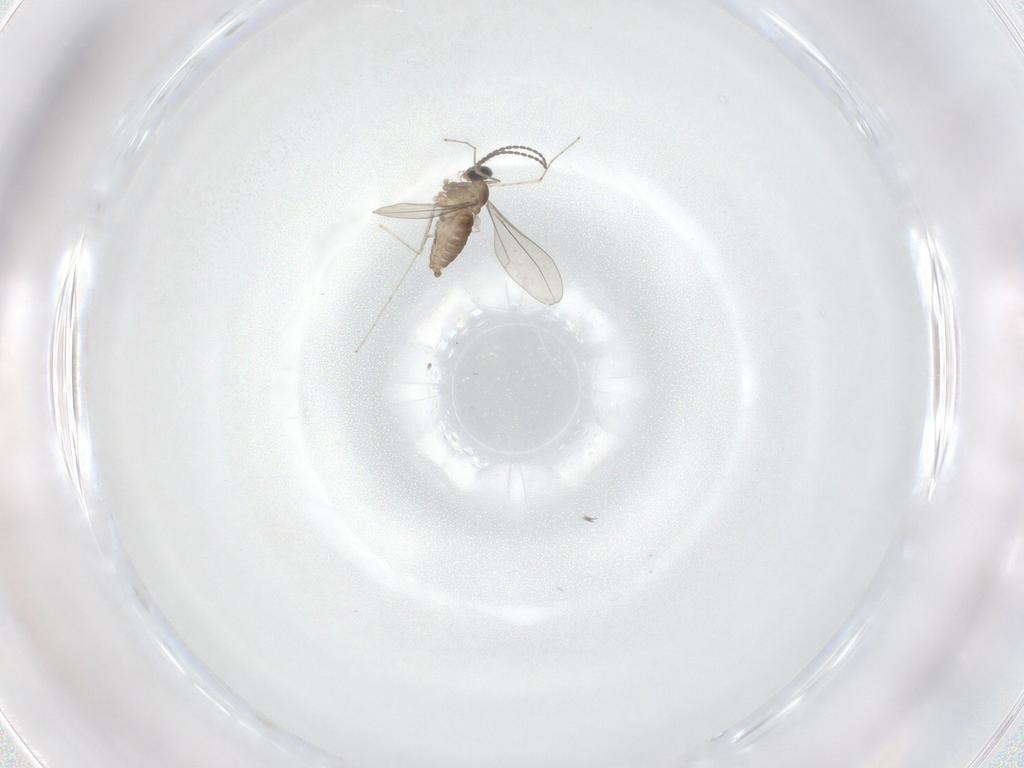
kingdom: Animalia
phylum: Arthropoda
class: Insecta
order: Diptera
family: Cecidomyiidae
